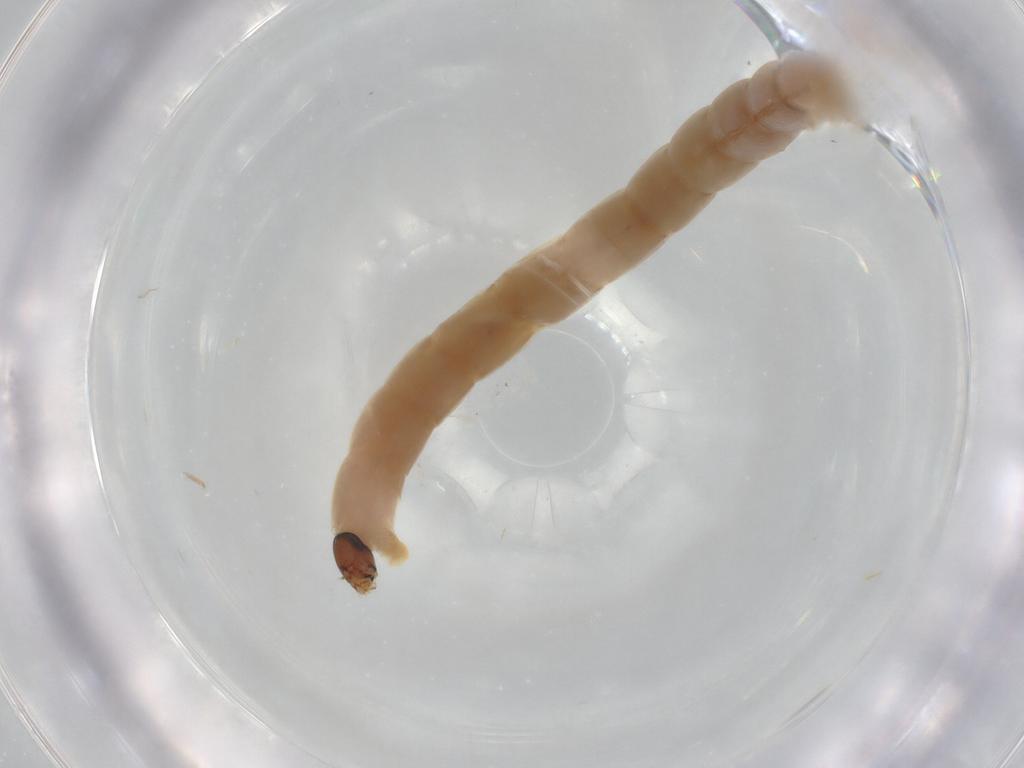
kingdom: Animalia
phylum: Arthropoda
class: Insecta
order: Diptera
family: Chironomidae
